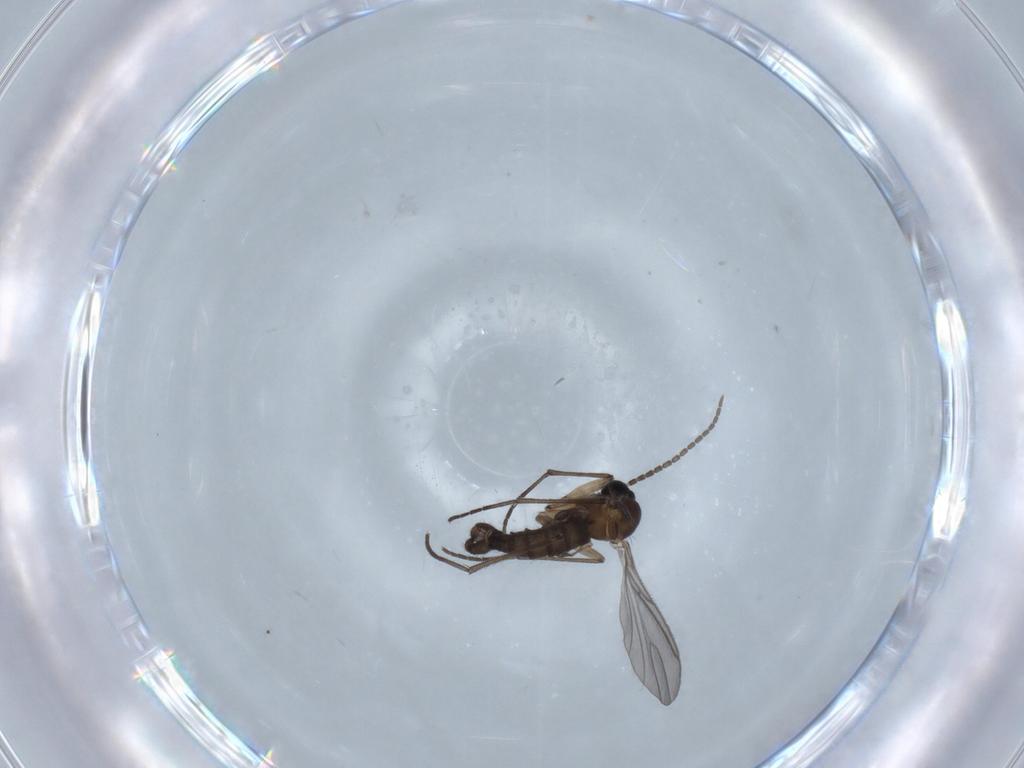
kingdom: Animalia
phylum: Arthropoda
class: Insecta
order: Diptera
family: Sciaridae
